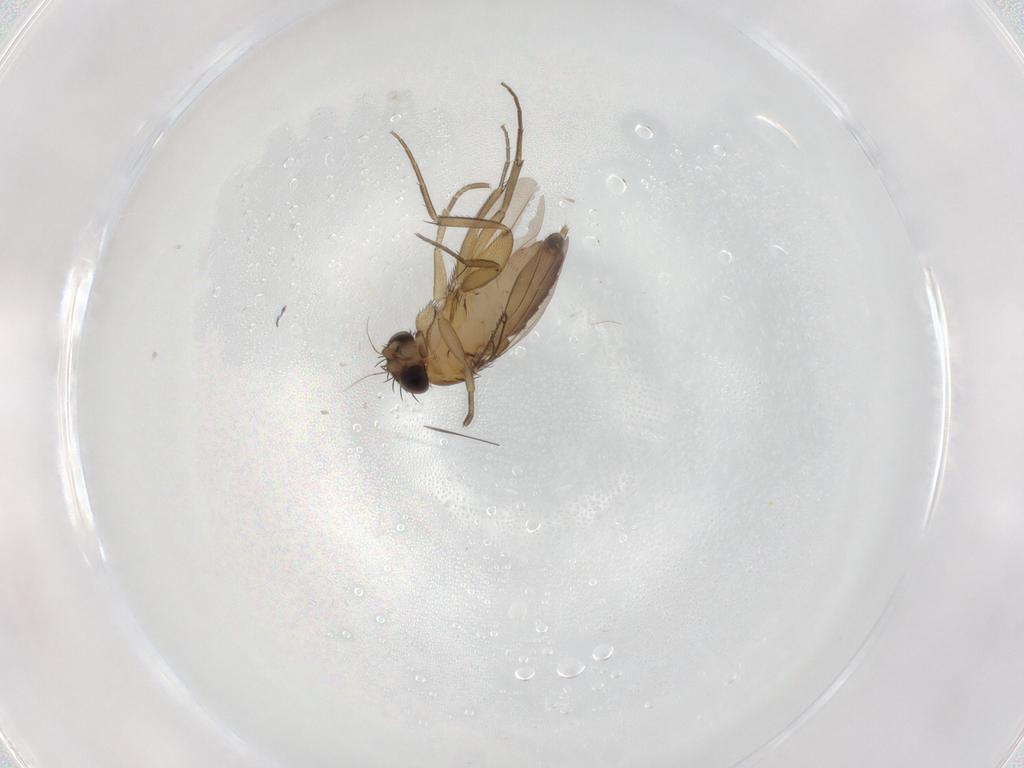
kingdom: Animalia
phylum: Arthropoda
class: Insecta
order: Diptera
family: Phoridae
